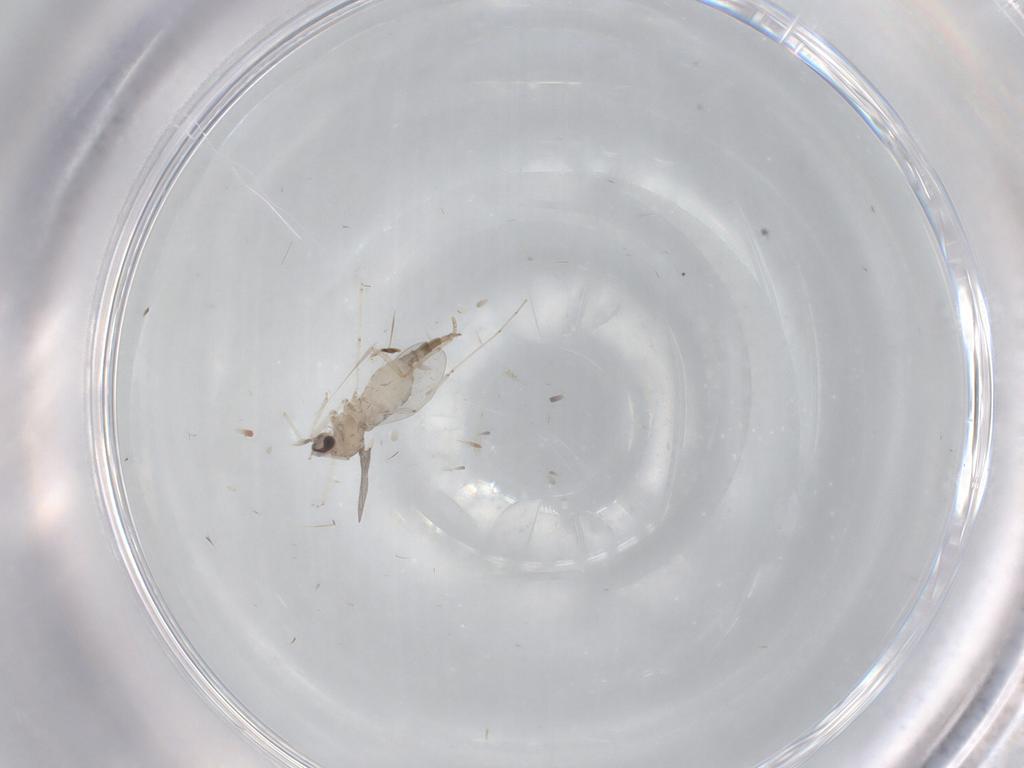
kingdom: Animalia
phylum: Arthropoda
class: Insecta
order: Diptera
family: Cecidomyiidae
